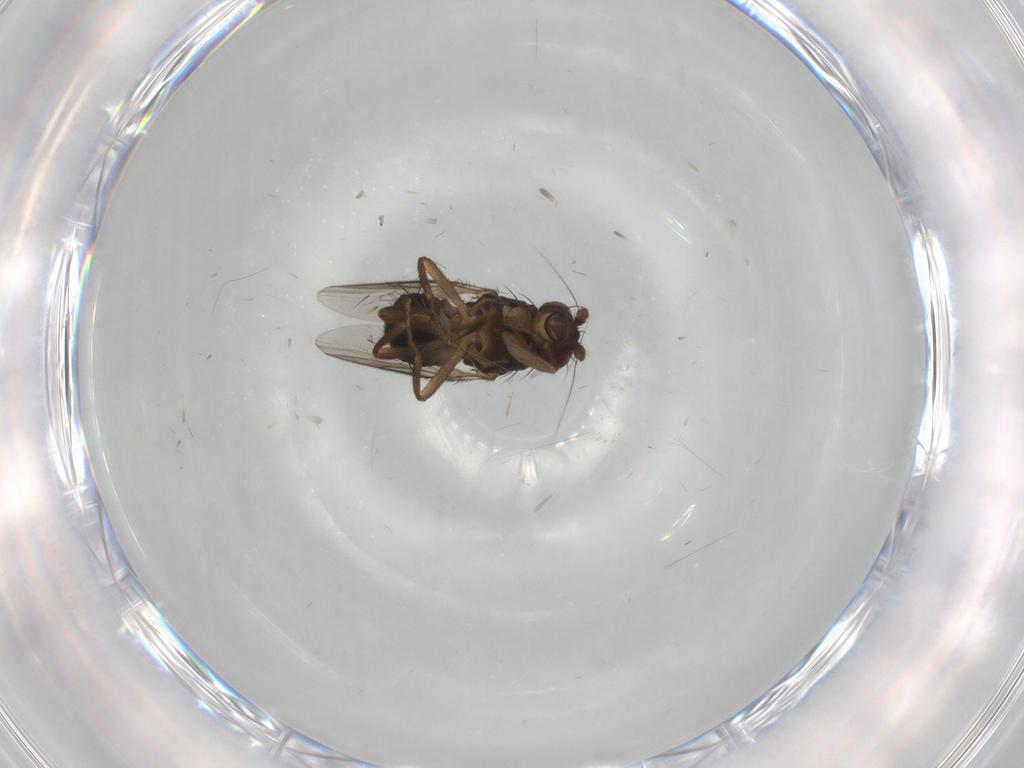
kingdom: Animalia
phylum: Arthropoda
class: Insecta
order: Diptera
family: Sphaeroceridae
